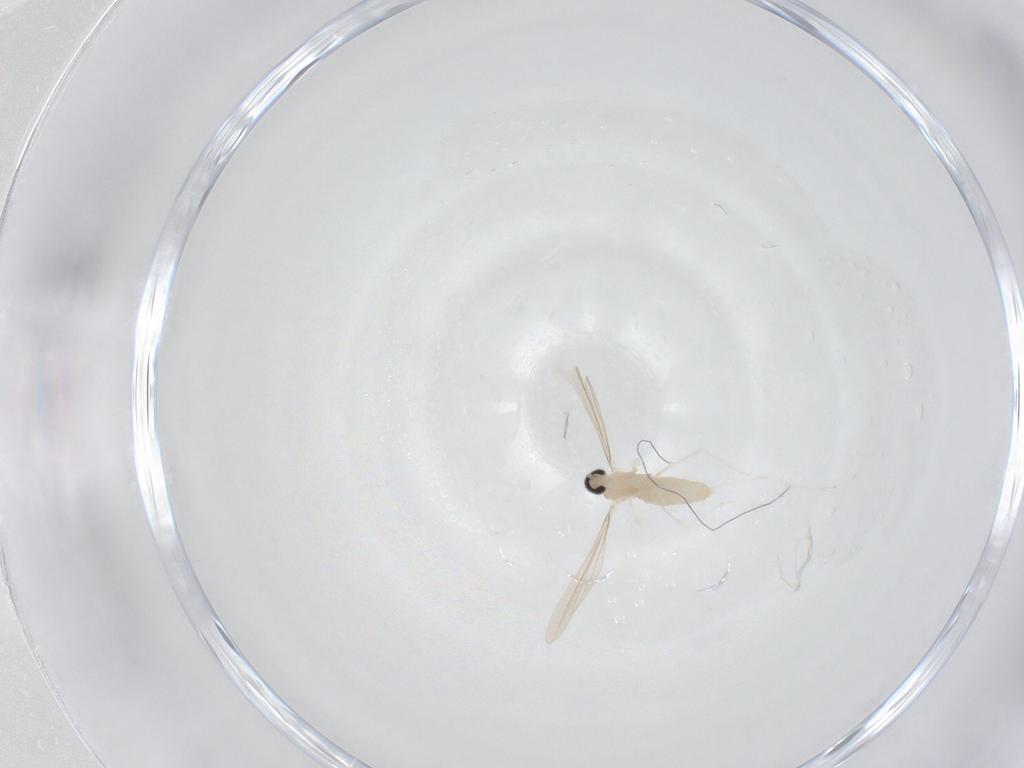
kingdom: Animalia
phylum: Arthropoda
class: Insecta
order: Diptera
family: Cecidomyiidae
